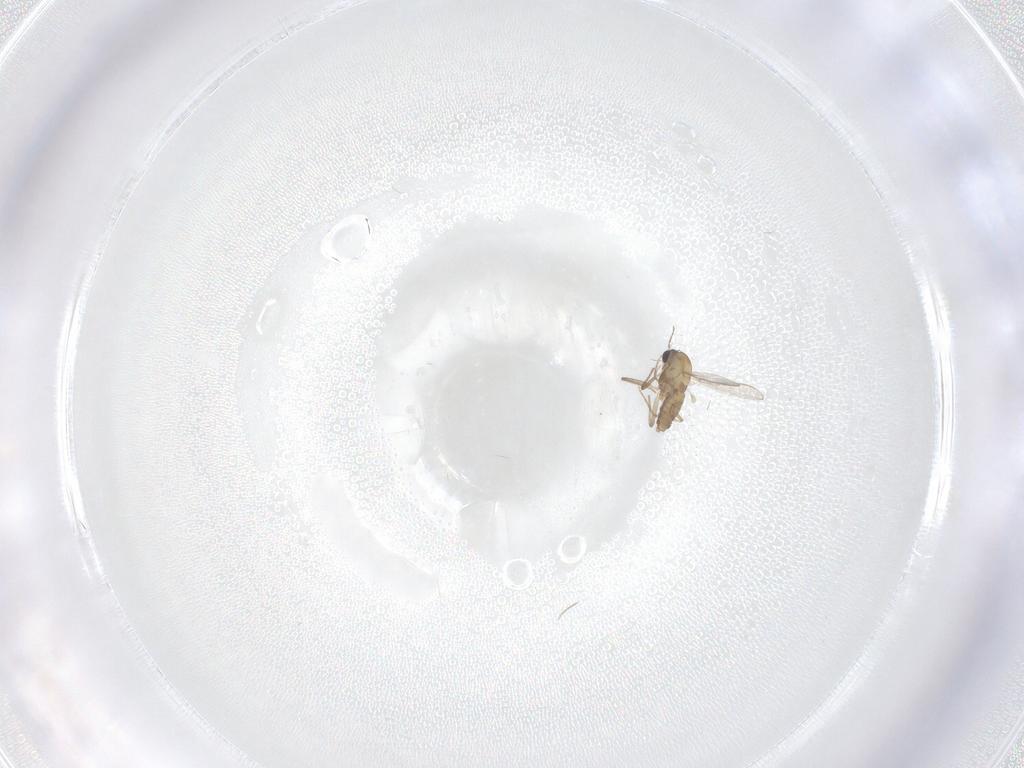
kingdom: Animalia
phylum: Arthropoda
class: Insecta
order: Diptera
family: Chironomidae
